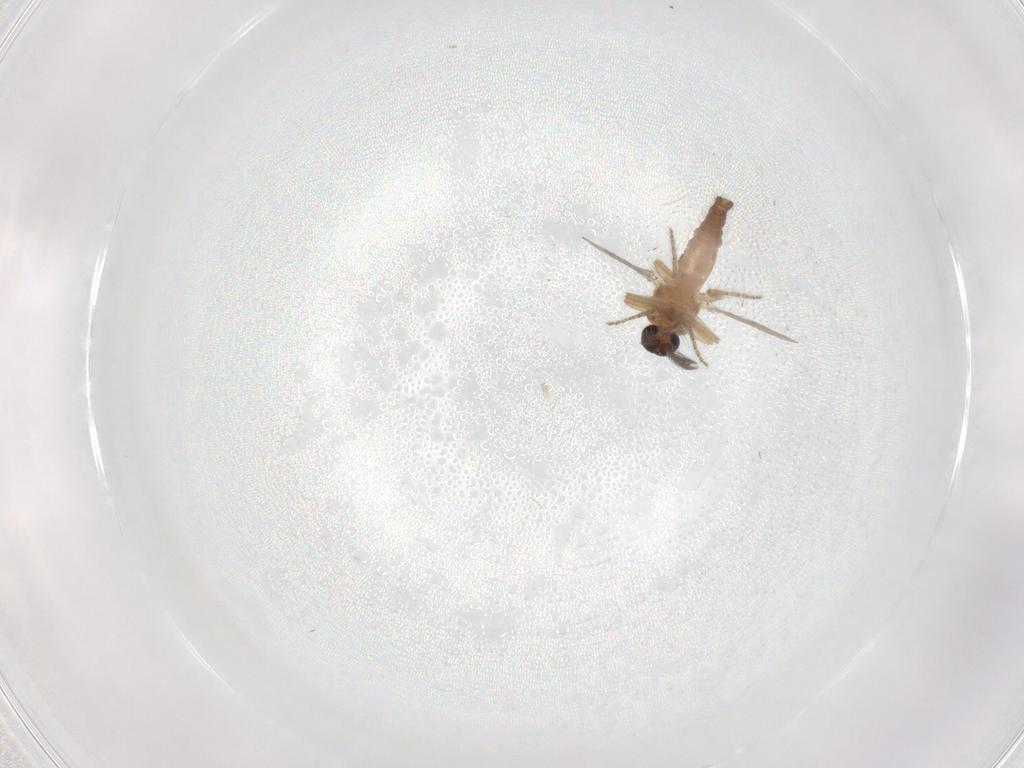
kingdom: Animalia
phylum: Arthropoda
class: Insecta
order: Diptera
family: Ceratopogonidae
